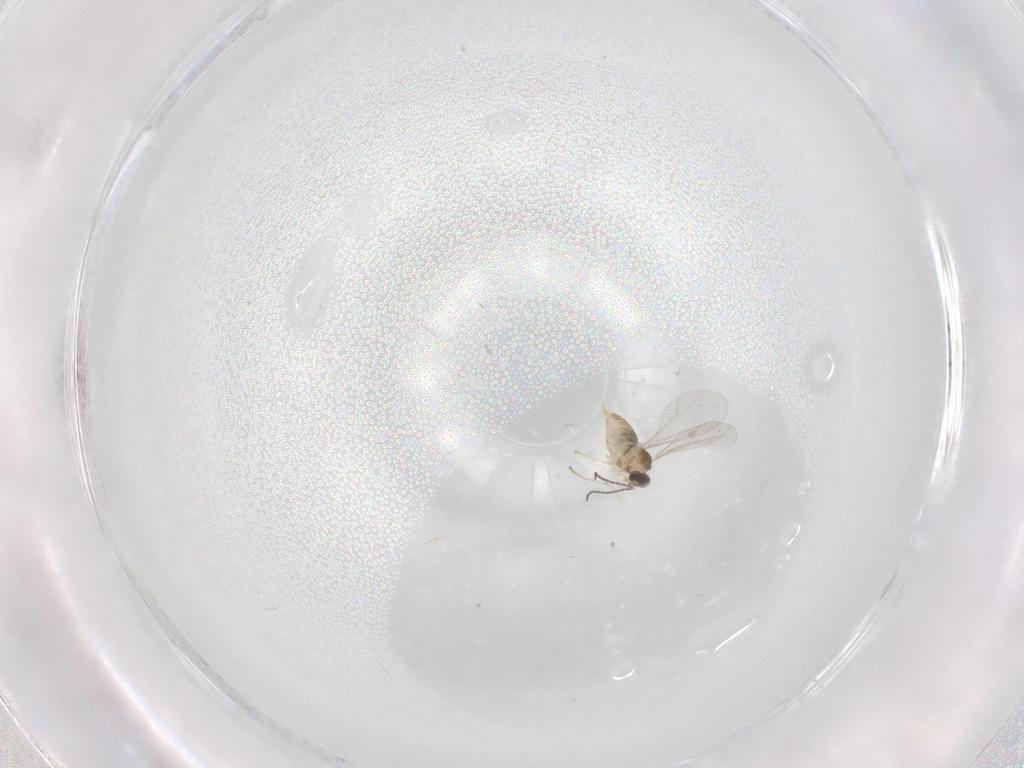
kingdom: Animalia
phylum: Arthropoda
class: Insecta
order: Diptera
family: Cecidomyiidae
